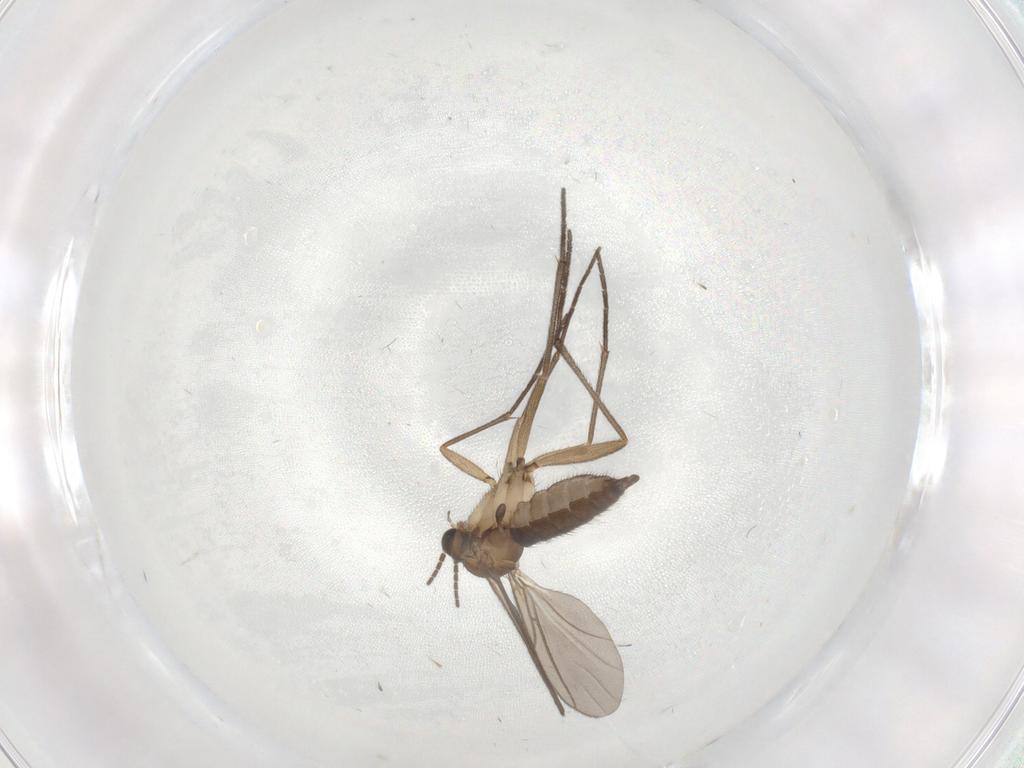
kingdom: Animalia
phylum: Arthropoda
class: Insecta
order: Diptera
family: Sciaridae
